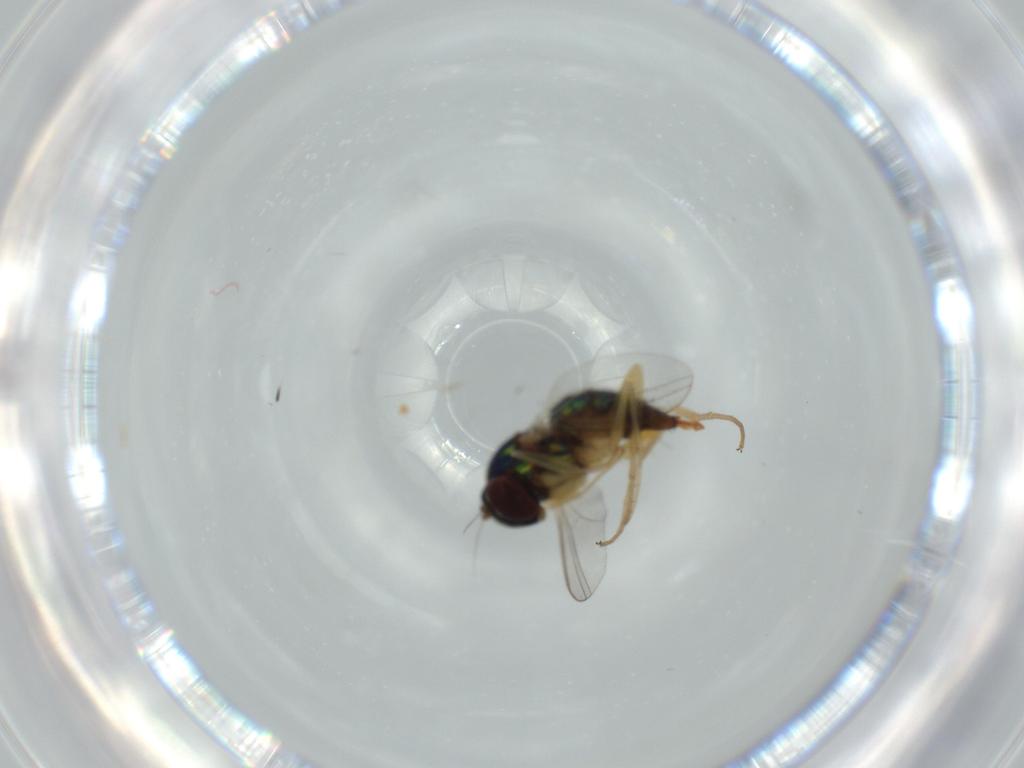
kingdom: Animalia
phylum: Arthropoda
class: Insecta
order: Diptera
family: Dolichopodidae
